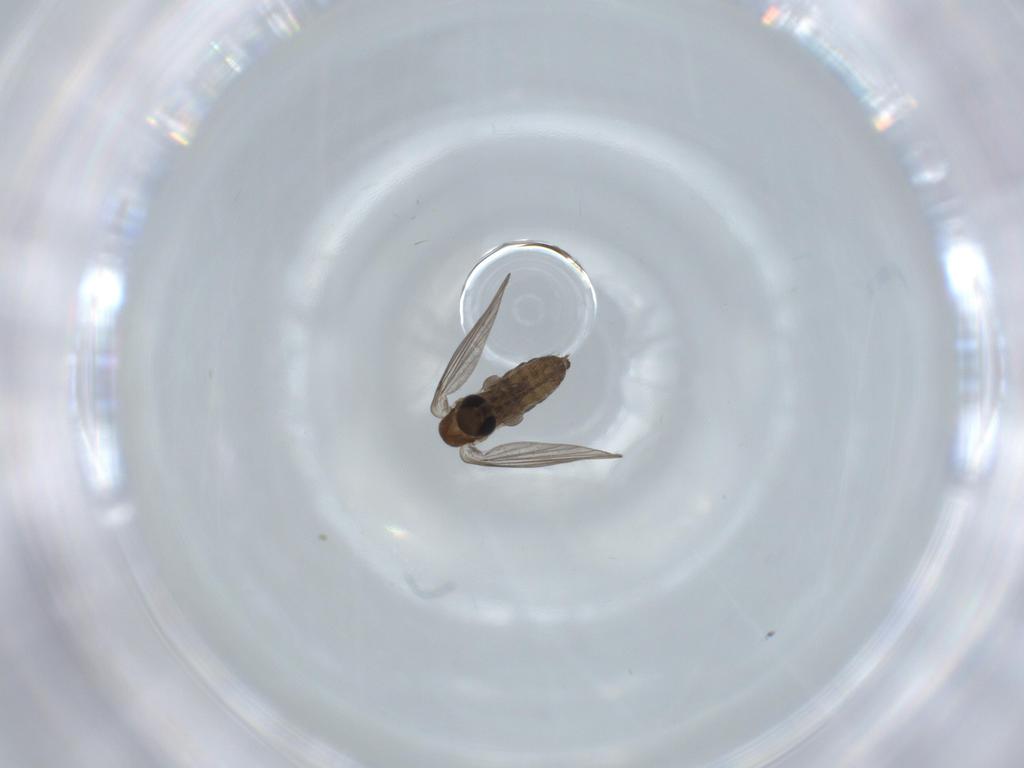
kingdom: Animalia
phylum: Arthropoda
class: Insecta
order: Diptera
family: Psychodidae
